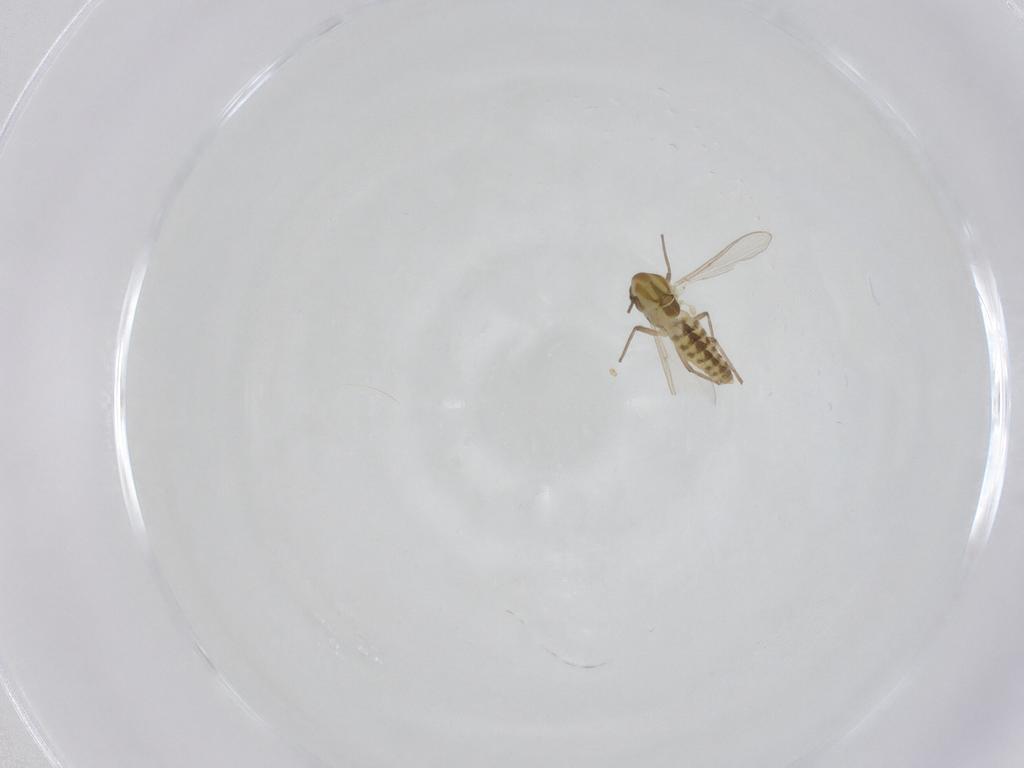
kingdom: Animalia
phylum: Arthropoda
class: Insecta
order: Diptera
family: Chironomidae
